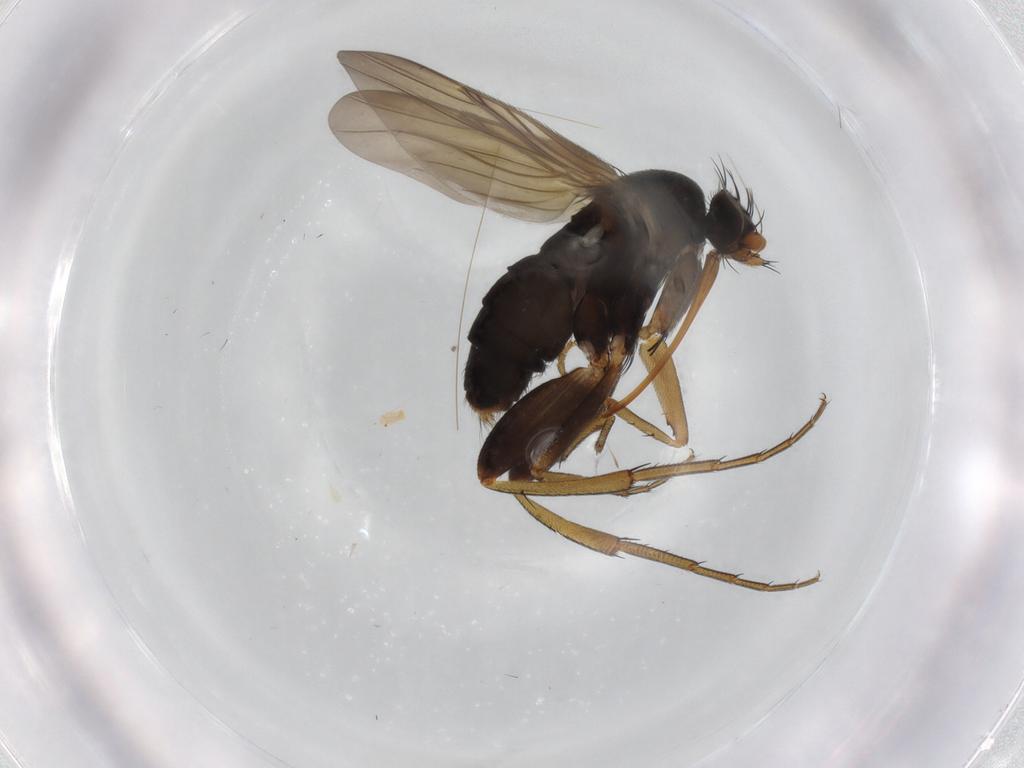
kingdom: Animalia
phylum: Arthropoda
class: Insecta
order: Diptera
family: Phoridae
